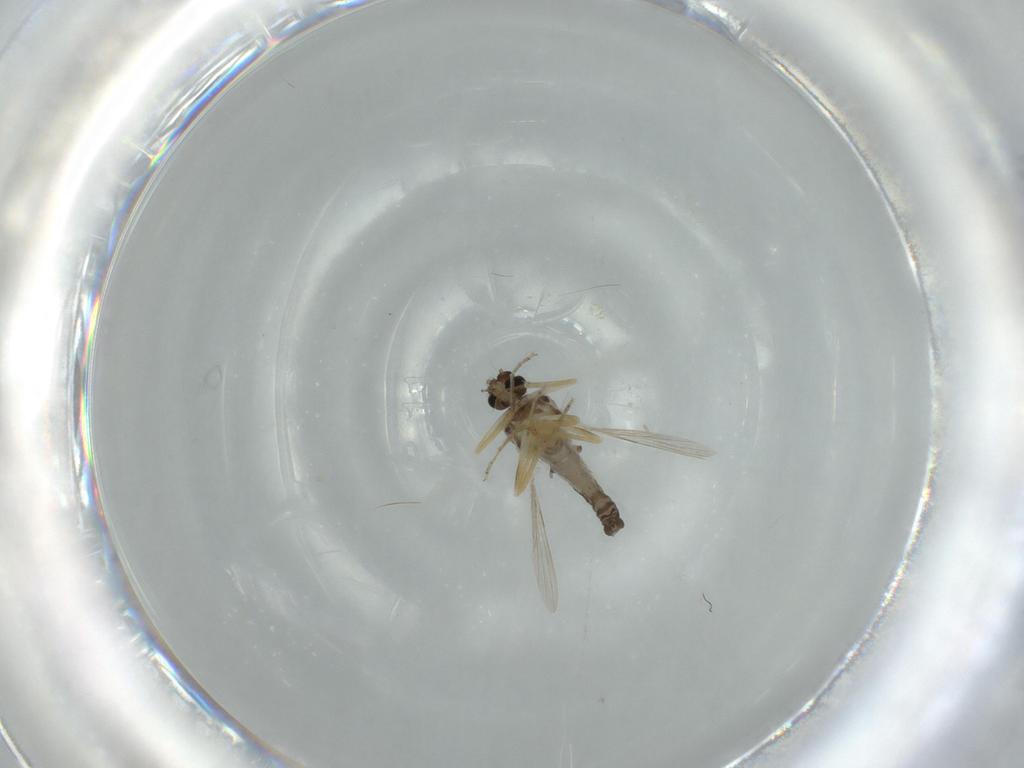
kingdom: Animalia
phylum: Arthropoda
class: Insecta
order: Diptera
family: Ceratopogonidae
